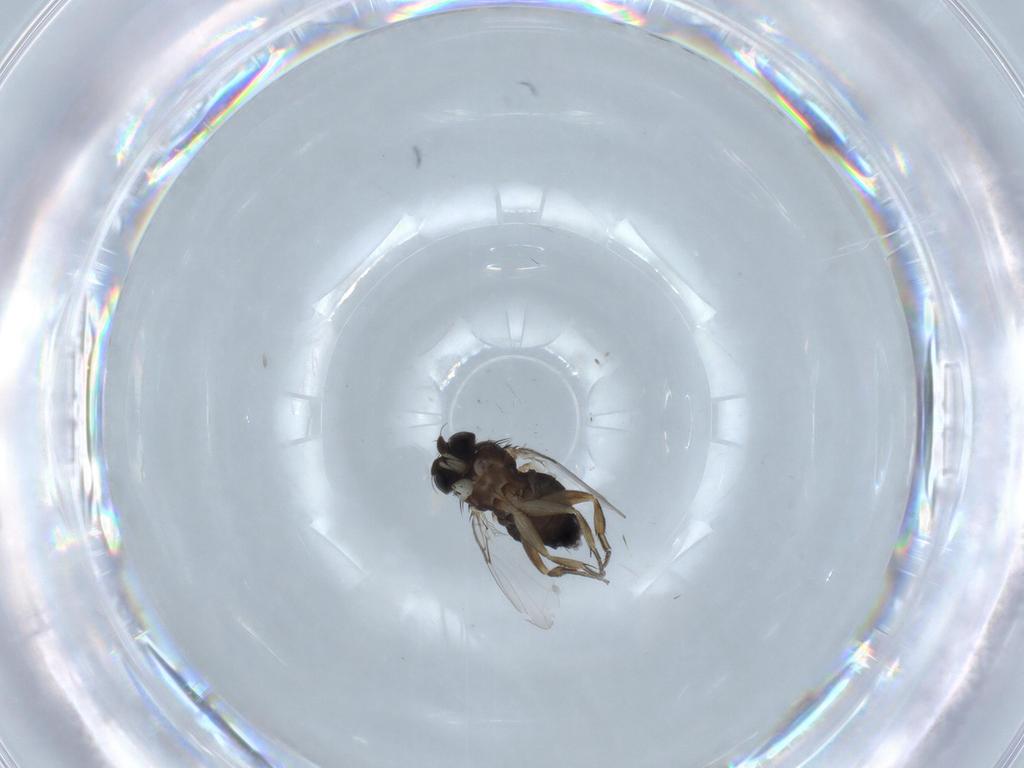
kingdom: Animalia
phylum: Arthropoda
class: Insecta
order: Diptera
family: Phoridae
